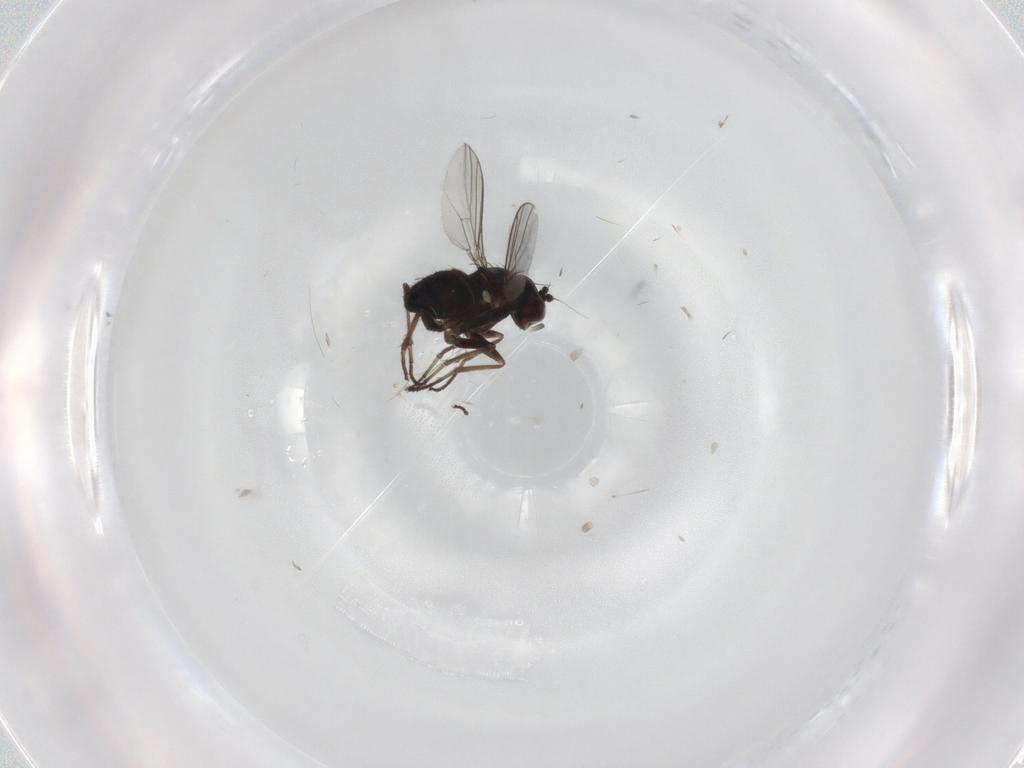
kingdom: Animalia
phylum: Arthropoda
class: Insecta
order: Diptera
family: Dolichopodidae
